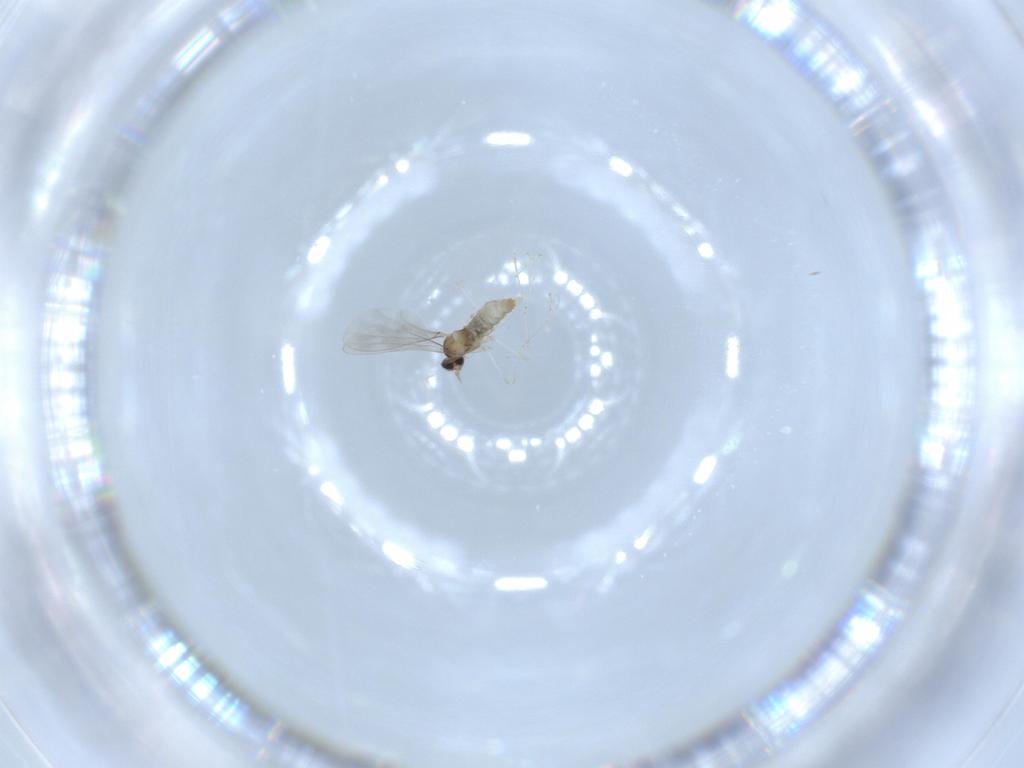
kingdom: Animalia
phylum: Arthropoda
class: Insecta
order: Diptera
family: Cecidomyiidae
